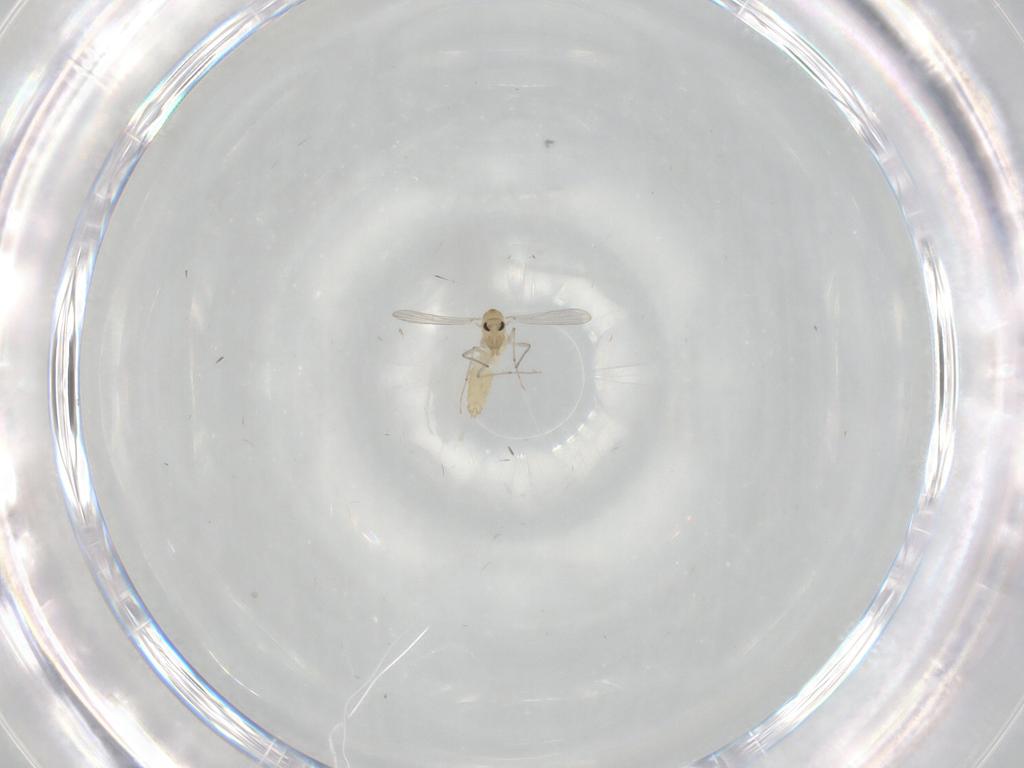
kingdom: Animalia
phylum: Arthropoda
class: Insecta
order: Diptera
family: Chironomidae
